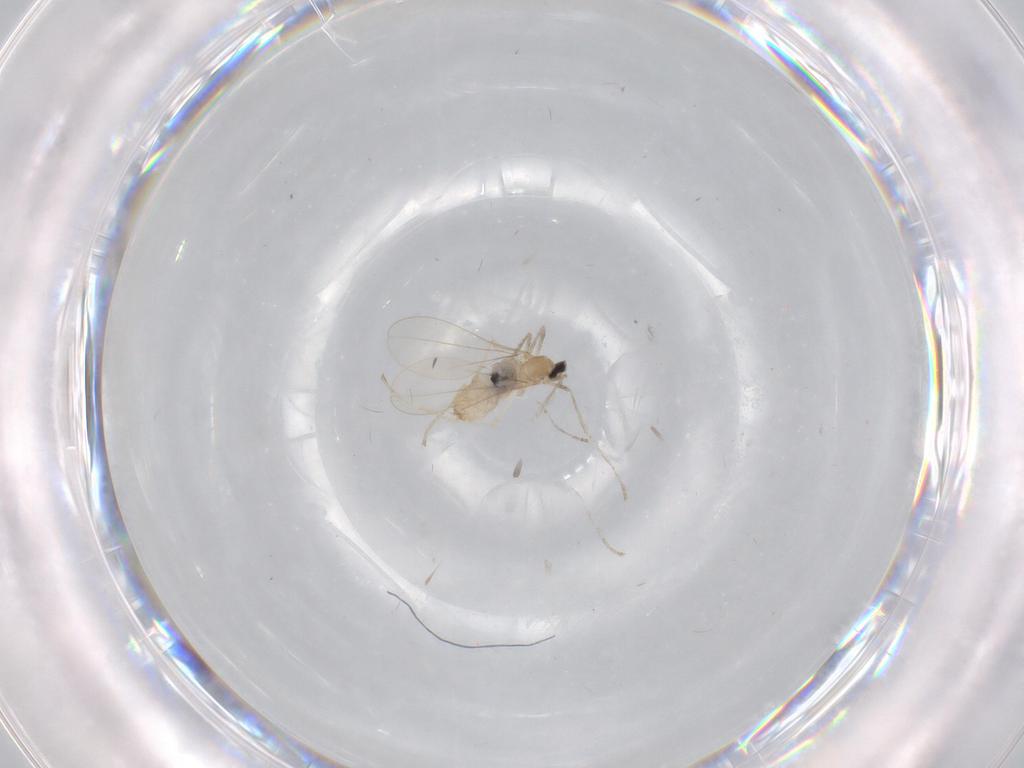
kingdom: Animalia
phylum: Arthropoda
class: Insecta
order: Diptera
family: Cecidomyiidae
